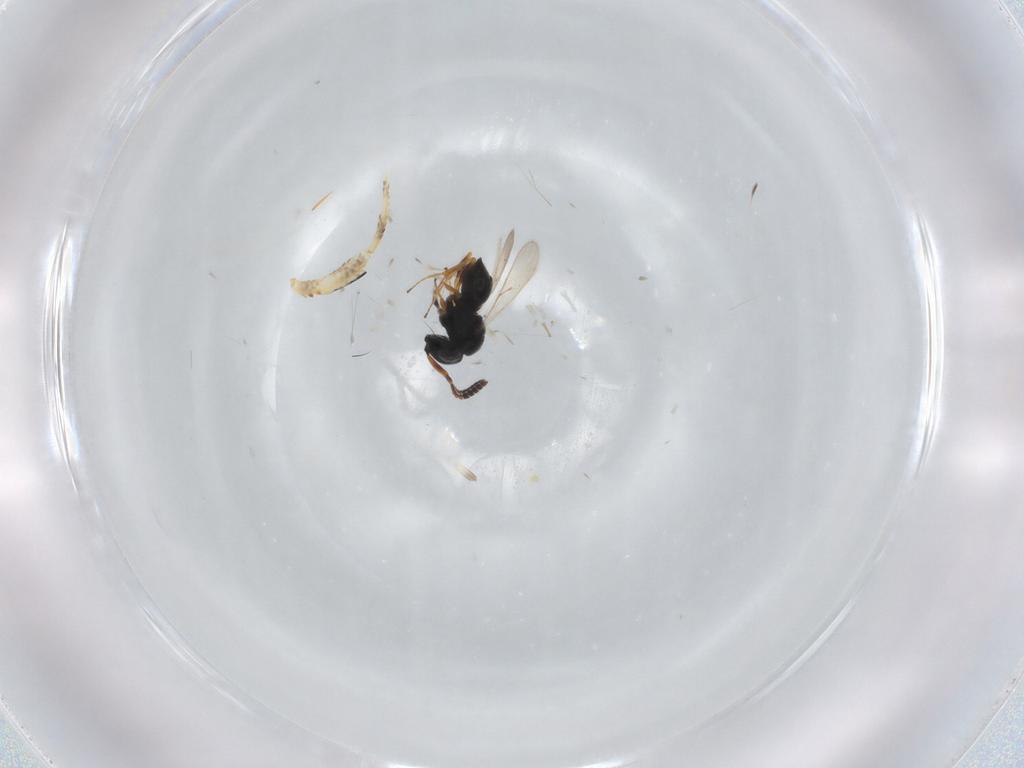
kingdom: Animalia
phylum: Arthropoda
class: Insecta
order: Hymenoptera
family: Scelionidae
